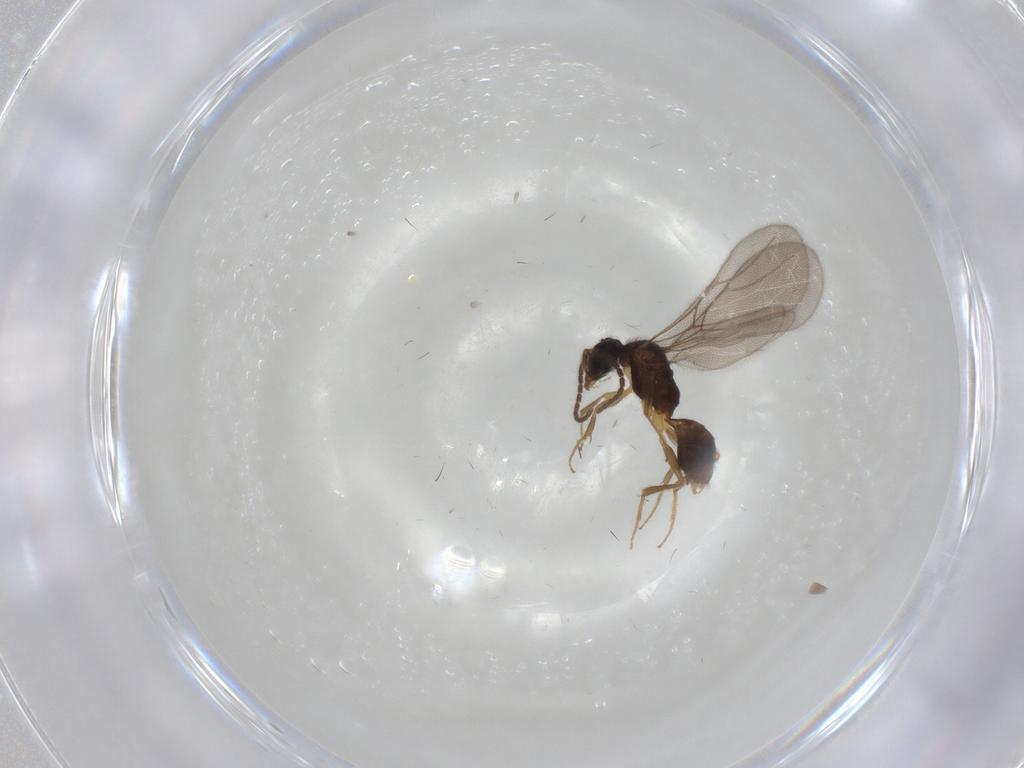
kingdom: Animalia
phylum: Arthropoda
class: Insecta
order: Hymenoptera
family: Bethylidae
